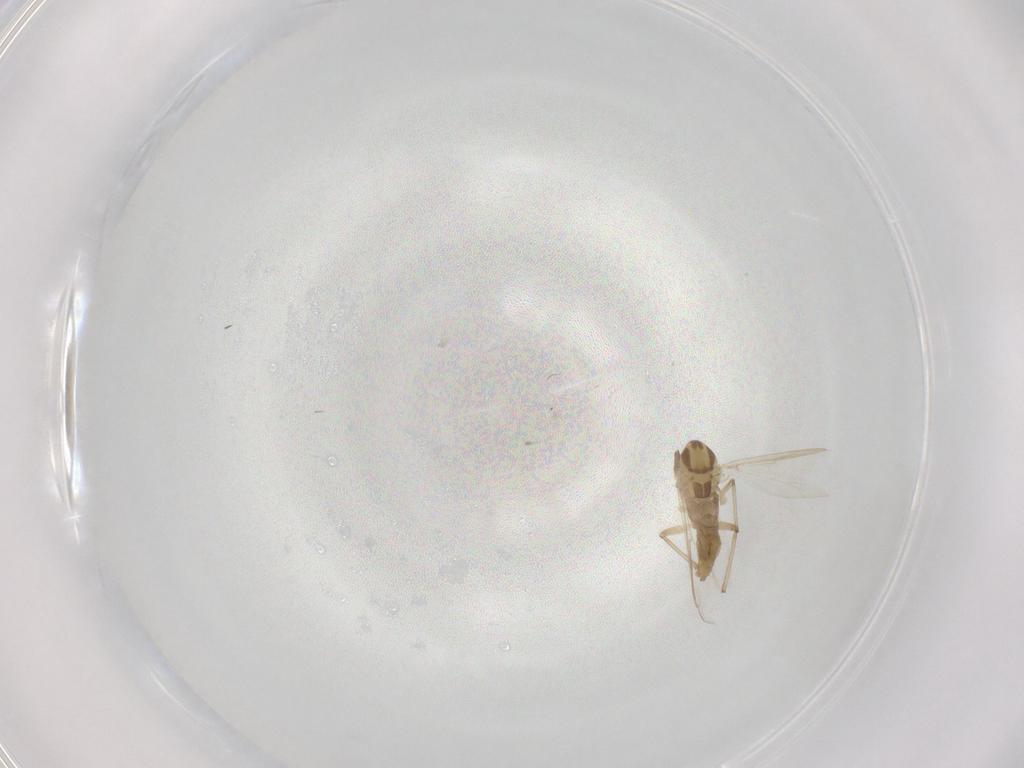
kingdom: Animalia
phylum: Arthropoda
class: Insecta
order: Diptera
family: Chironomidae
